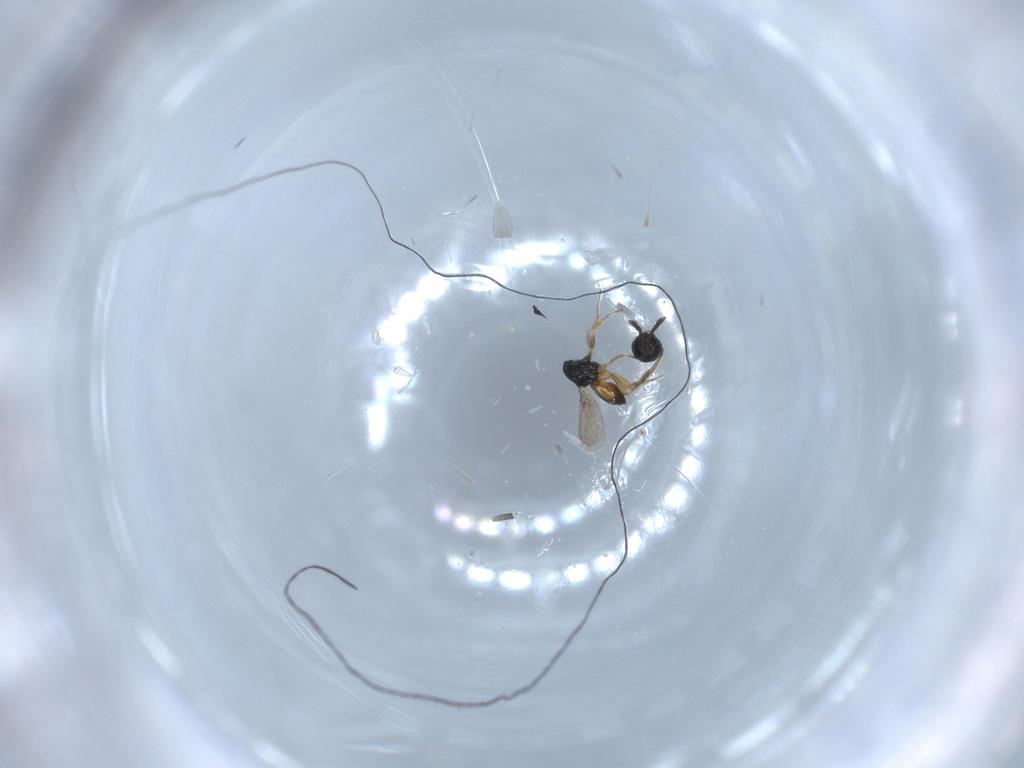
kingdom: Animalia
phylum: Arthropoda
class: Insecta
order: Hymenoptera
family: Scelionidae
